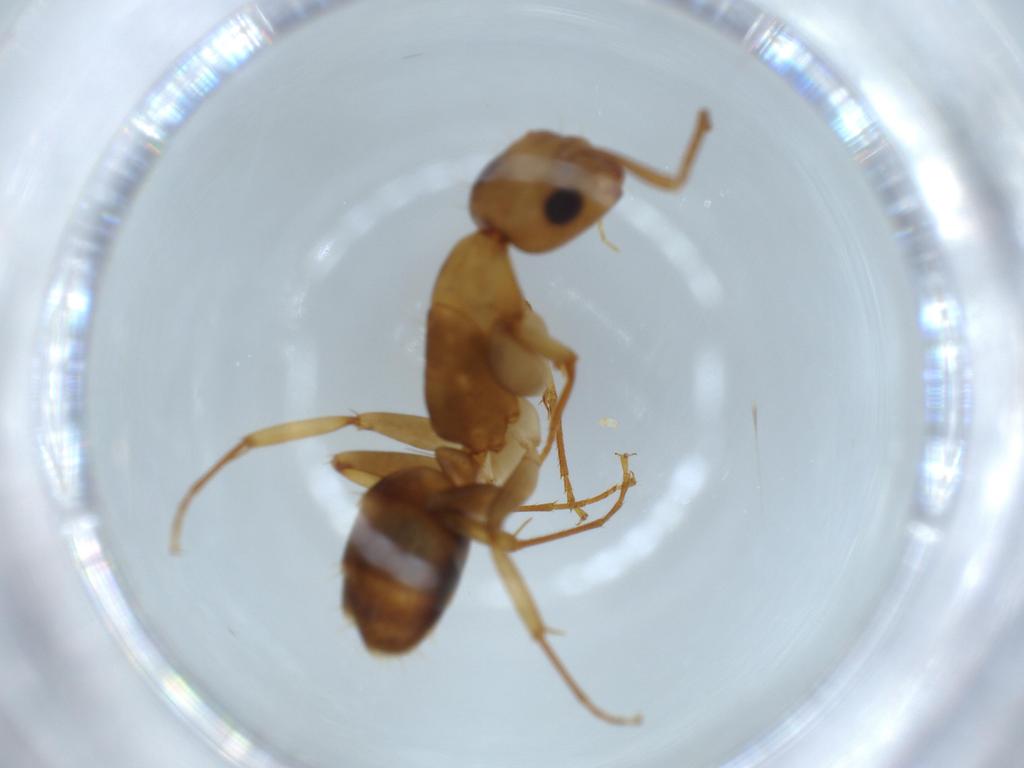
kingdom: Animalia
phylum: Arthropoda
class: Insecta
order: Hymenoptera
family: Formicidae
